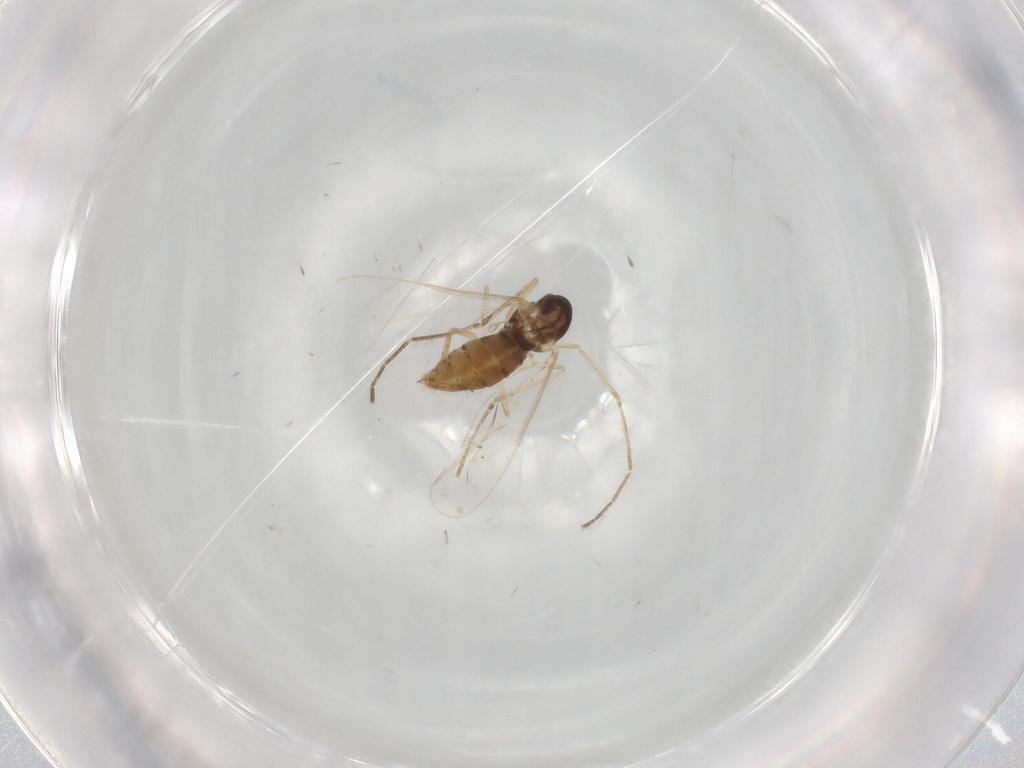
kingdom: Animalia
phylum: Arthropoda
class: Insecta
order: Diptera
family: Cecidomyiidae
